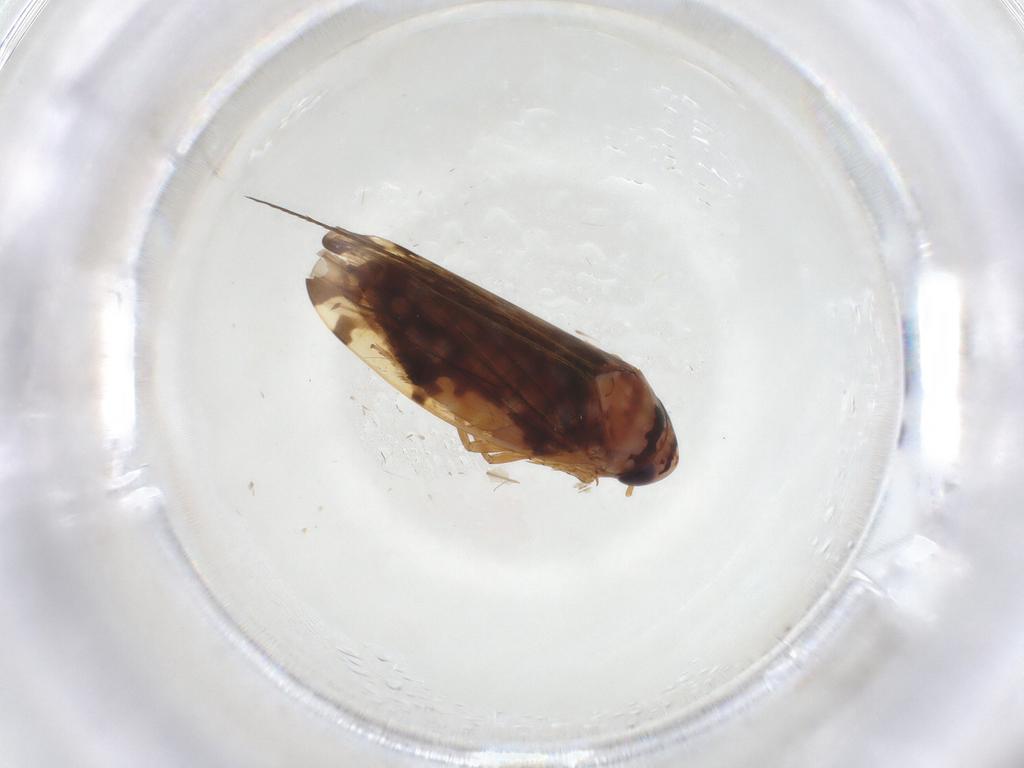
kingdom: Animalia
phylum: Arthropoda
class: Insecta
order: Hemiptera
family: Cicadellidae
